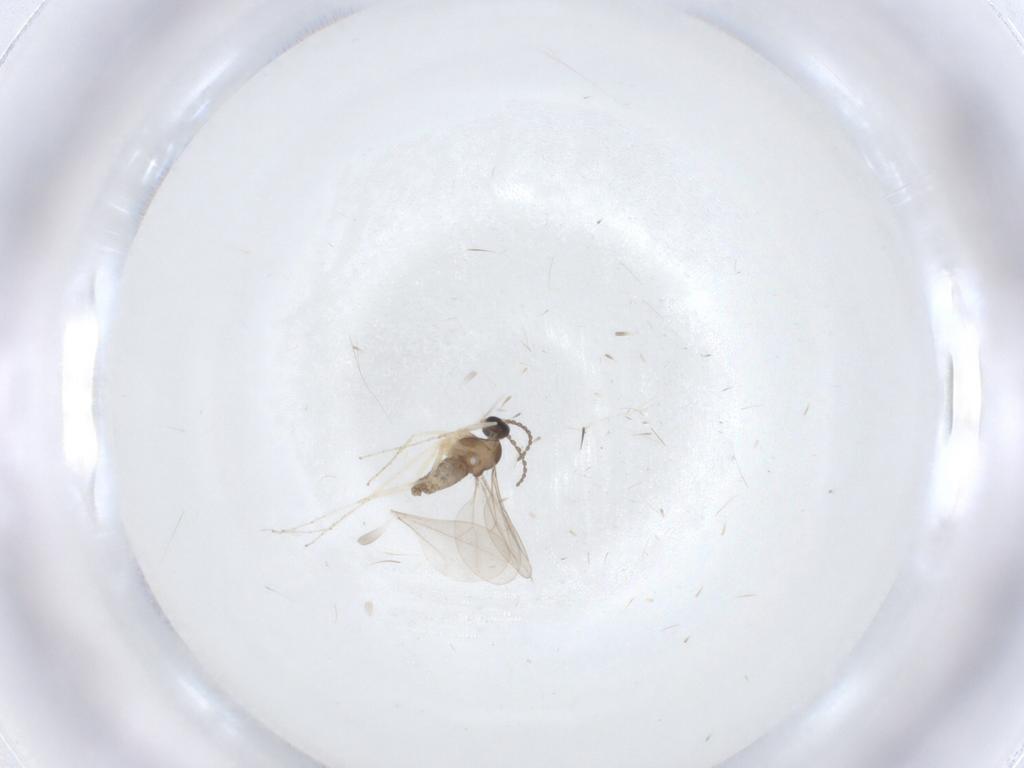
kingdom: Animalia
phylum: Arthropoda
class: Insecta
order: Diptera
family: Cecidomyiidae
